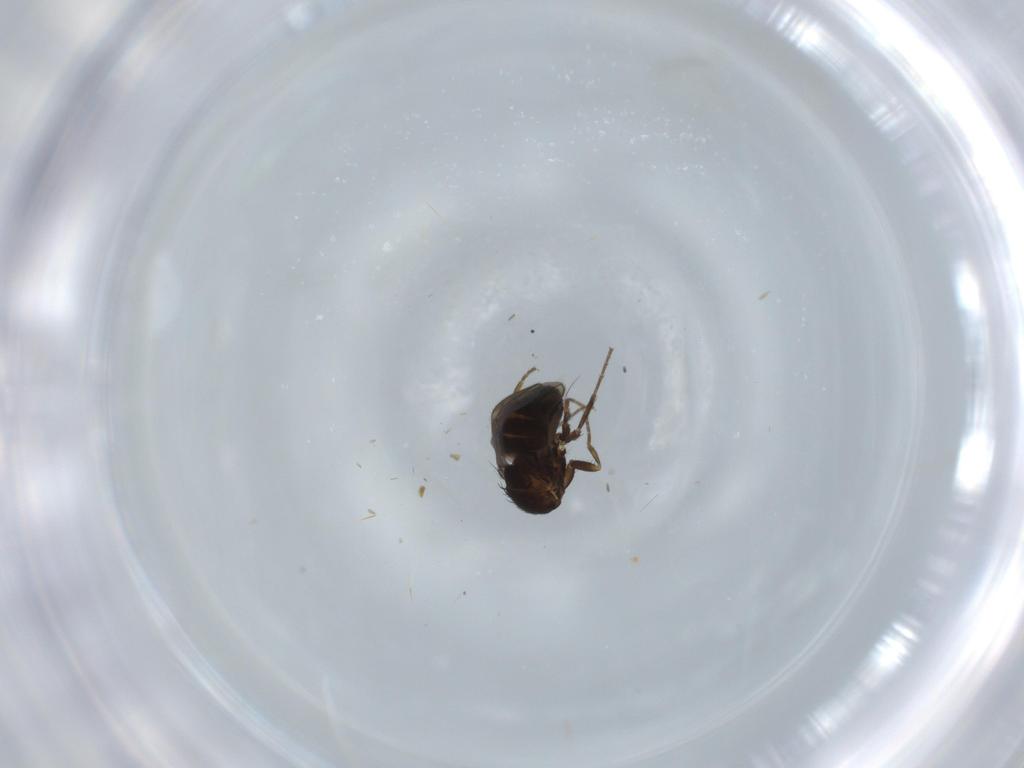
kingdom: Animalia
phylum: Arthropoda
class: Insecta
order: Diptera
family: Sphaeroceridae
